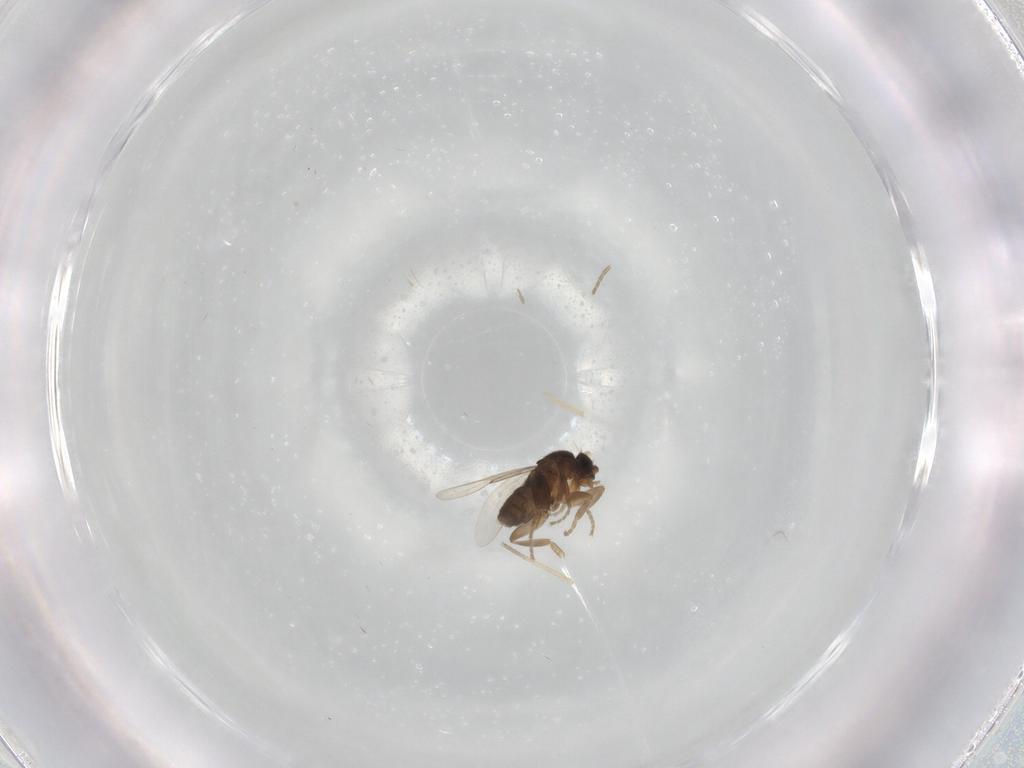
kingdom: Animalia
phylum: Arthropoda
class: Insecta
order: Diptera
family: Phoridae
